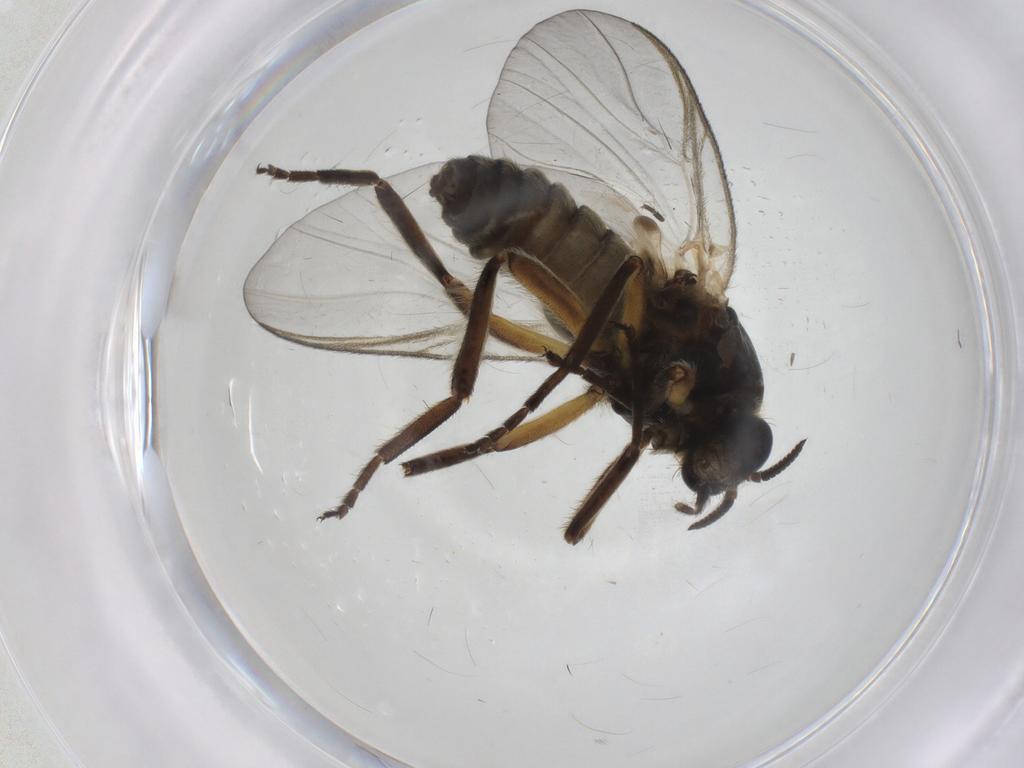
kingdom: Animalia
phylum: Arthropoda
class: Insecta
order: Diptera
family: Simuliidae
